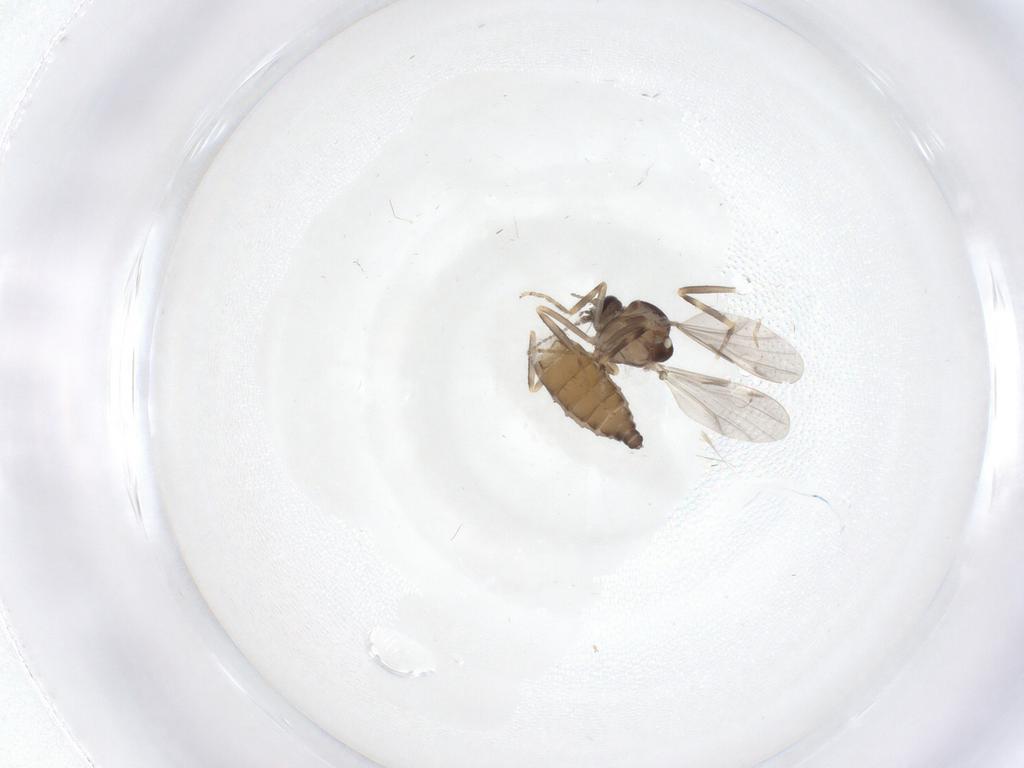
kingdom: Animalia
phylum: Arthropoda
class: Insecta
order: Diptera
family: Ceratopogonidae
